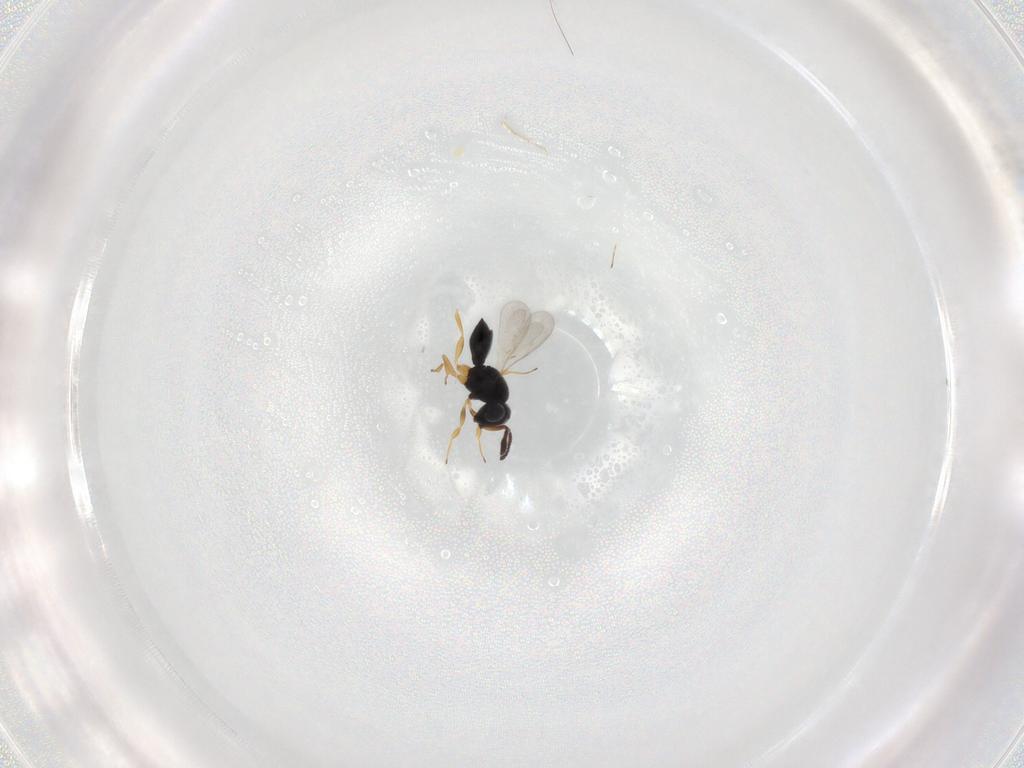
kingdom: Animalia
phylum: Arthropoda
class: Insecta
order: Hymenoptera
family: Scelionidae
